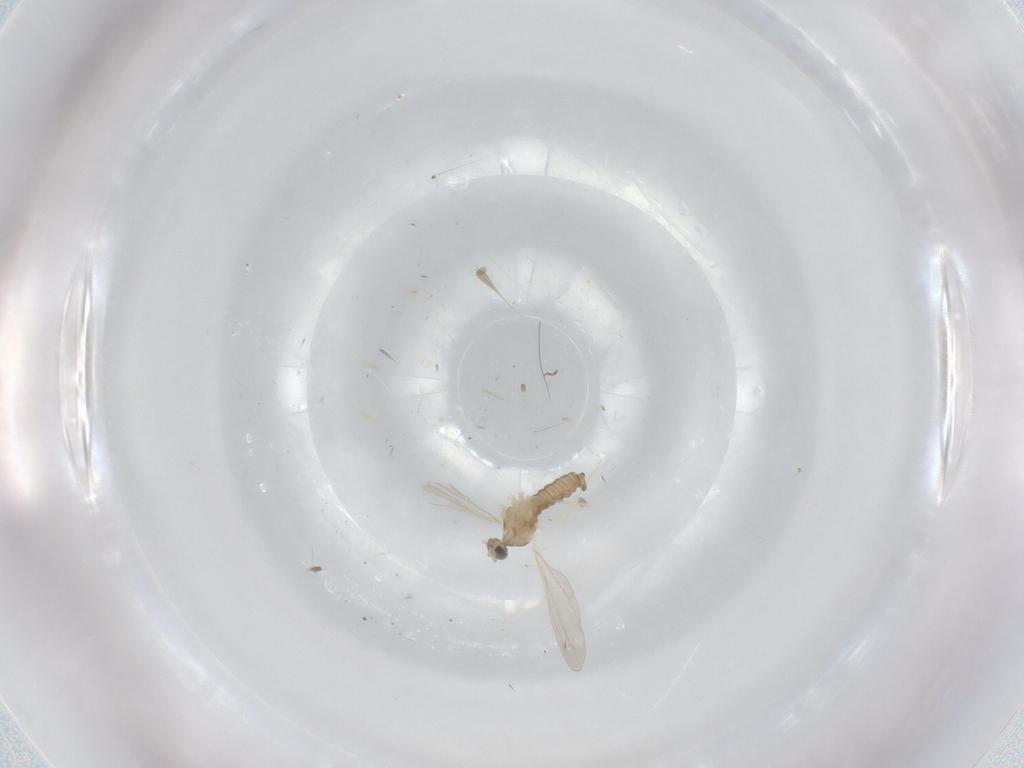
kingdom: Animalia
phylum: Arthropoda
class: Insecta
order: Diptera
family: Cecidomyiidae
